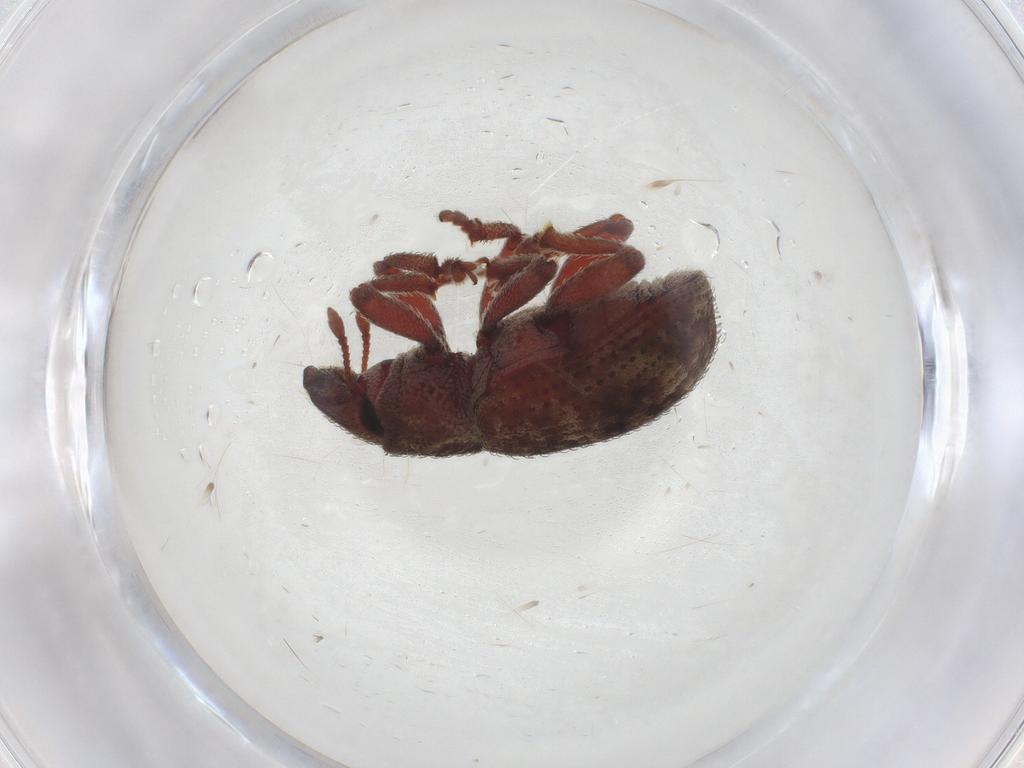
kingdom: Animalia
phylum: Arthropoda
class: Insecta
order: Coleoptera
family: Curculionidae
